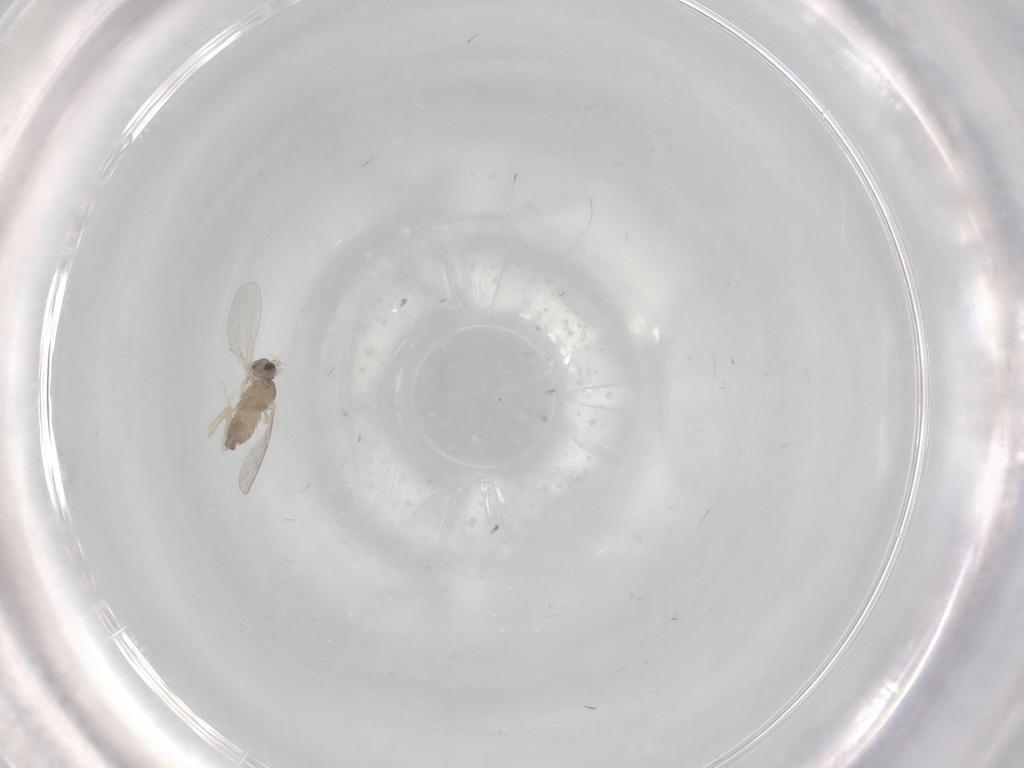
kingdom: Animalia
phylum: Arthropoda
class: Insecta
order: Diptera
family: Cecidomyiidae
